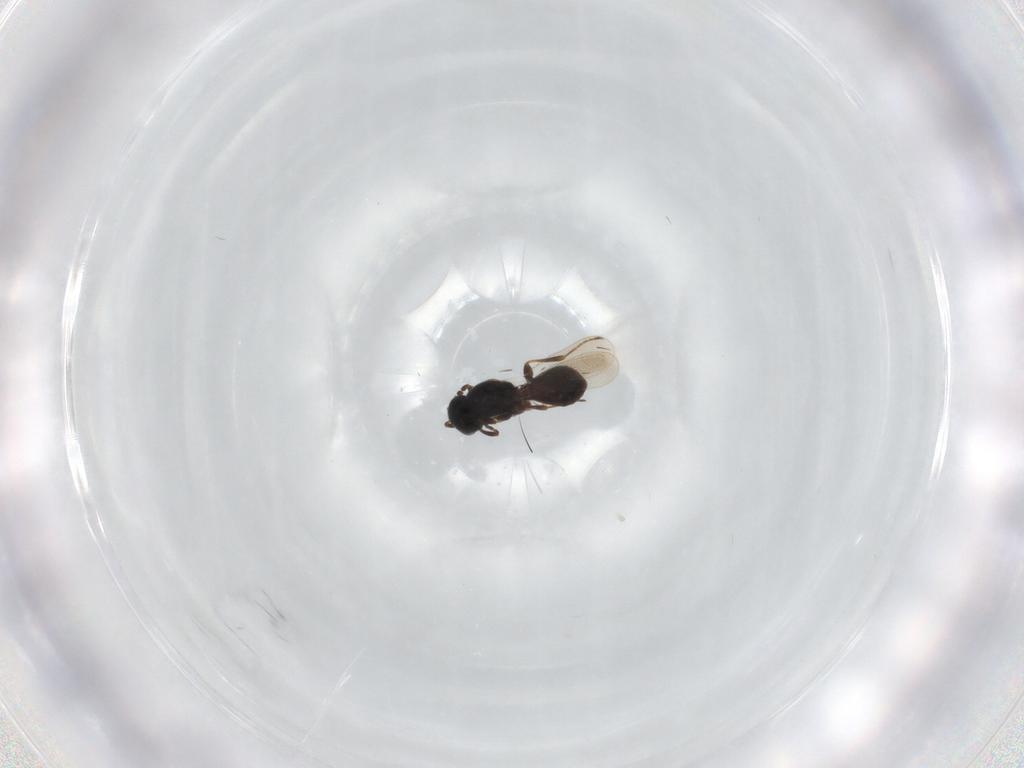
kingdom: Animalia
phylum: Arthropoda
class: Insecta
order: Hymenoptera
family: Platygastridae
